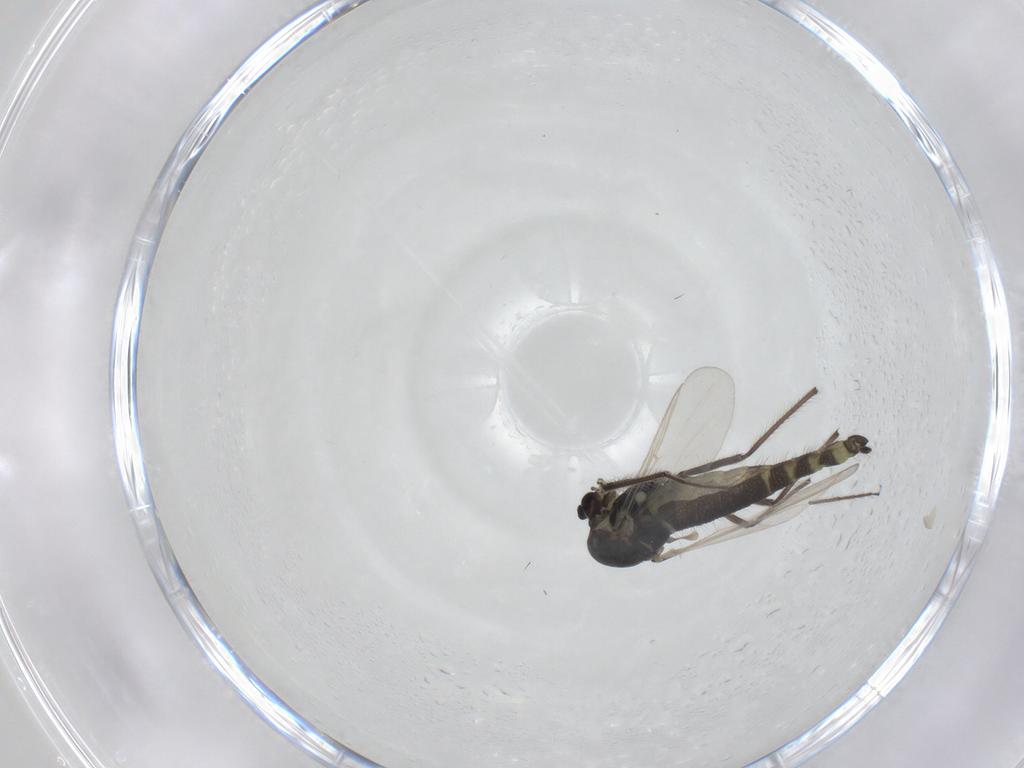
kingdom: Animalia
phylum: Arthropoda
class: Insecta
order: Diptera
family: Chironomidae
